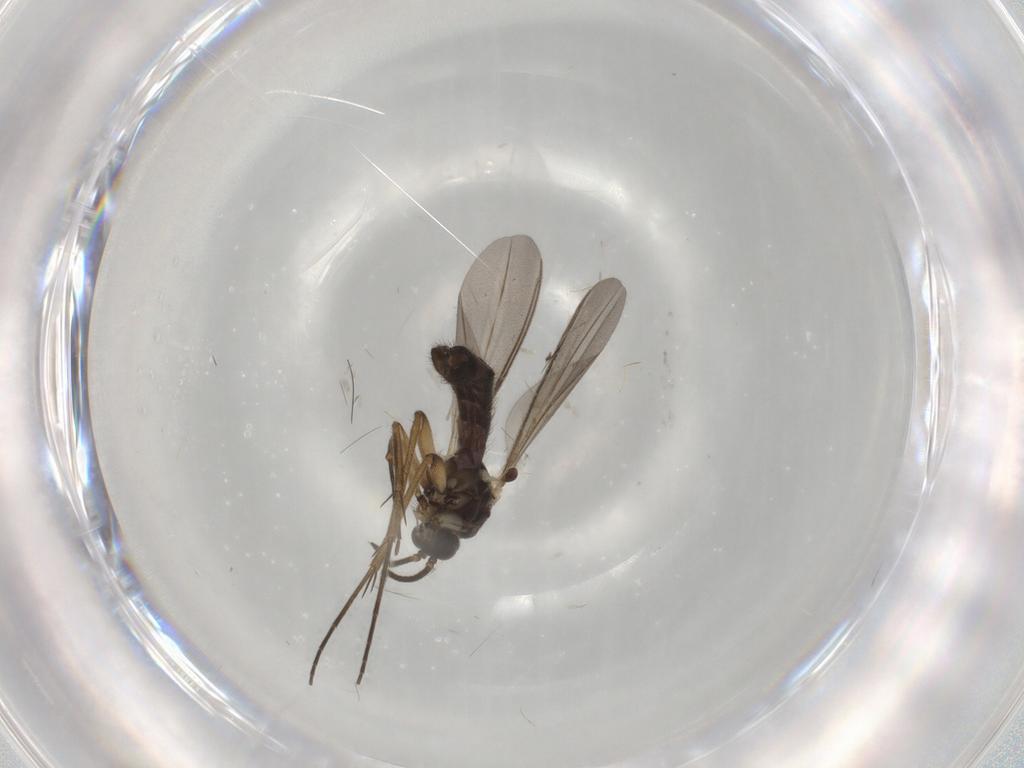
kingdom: Animalia
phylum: Arthropoda
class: Insecta
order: Diptera
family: Mycetophilidae
